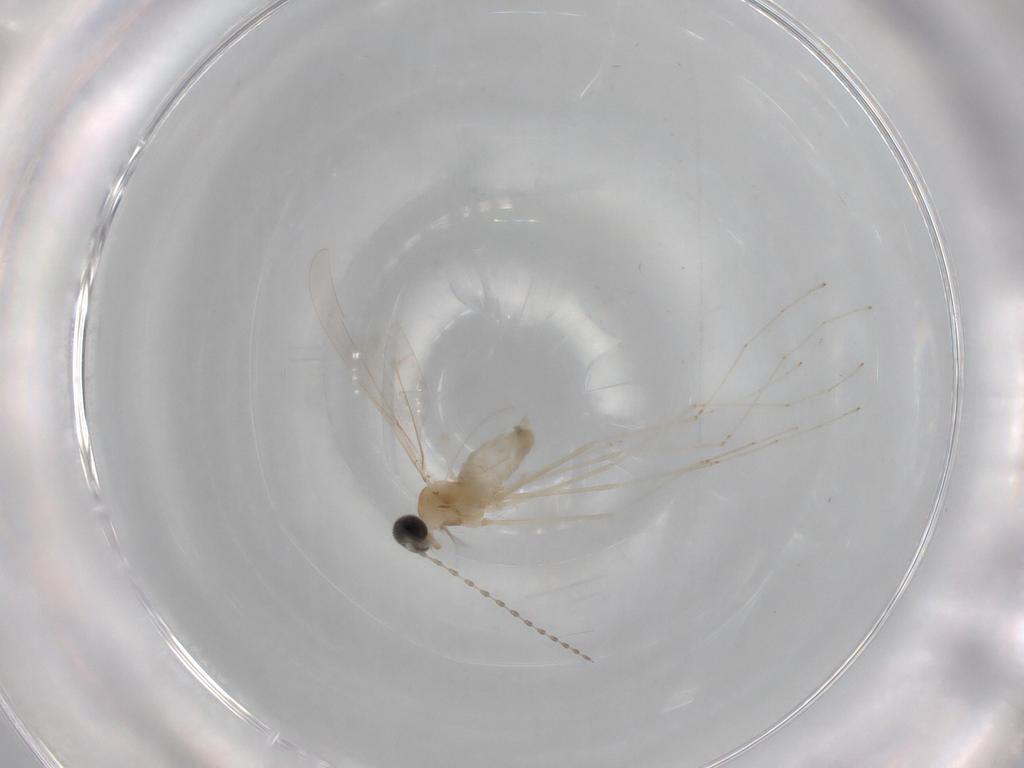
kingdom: Animalia
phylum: Arthropoda
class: Insecta
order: Diptera
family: Cecidomyiidae
